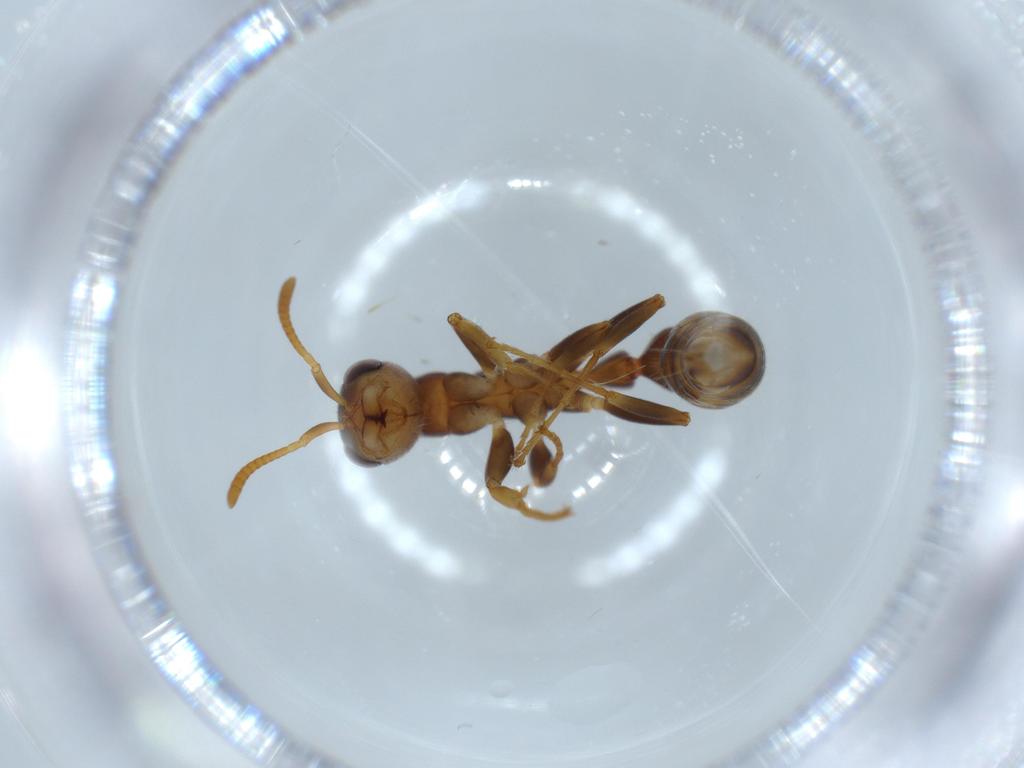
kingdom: Animalia
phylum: Arthropoda
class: Insecta
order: Hymenoptera
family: Formicidae
